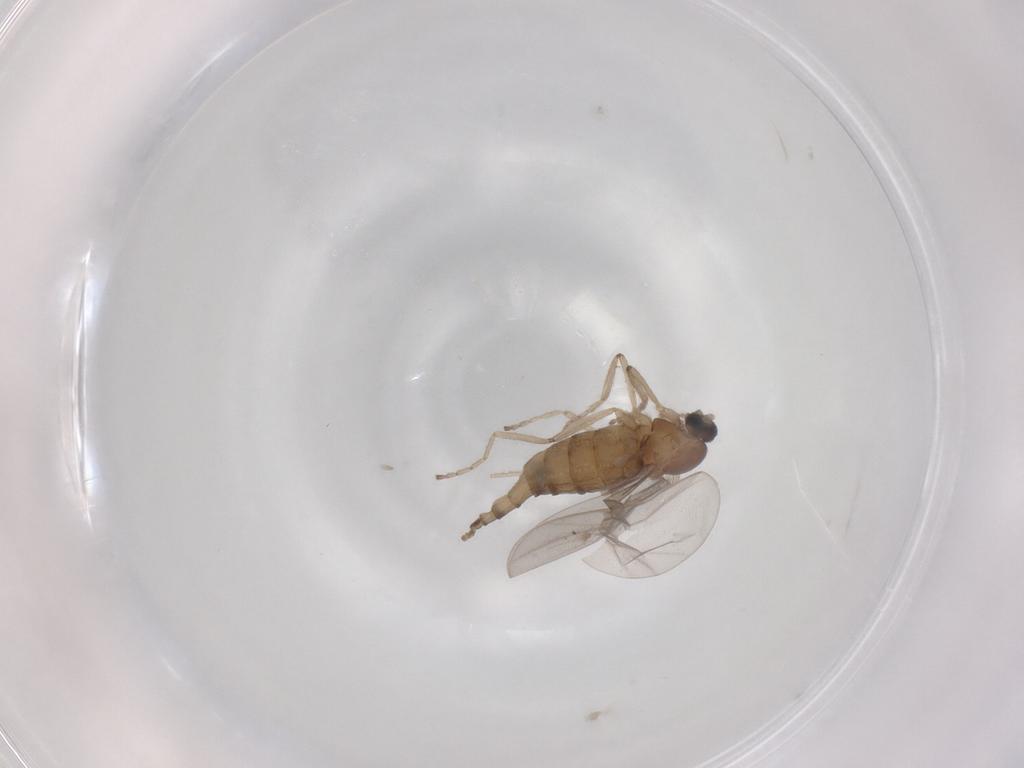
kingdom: Animalia
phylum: Arthropoda
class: Insecta
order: Diptera
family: Cecidomyiidae
